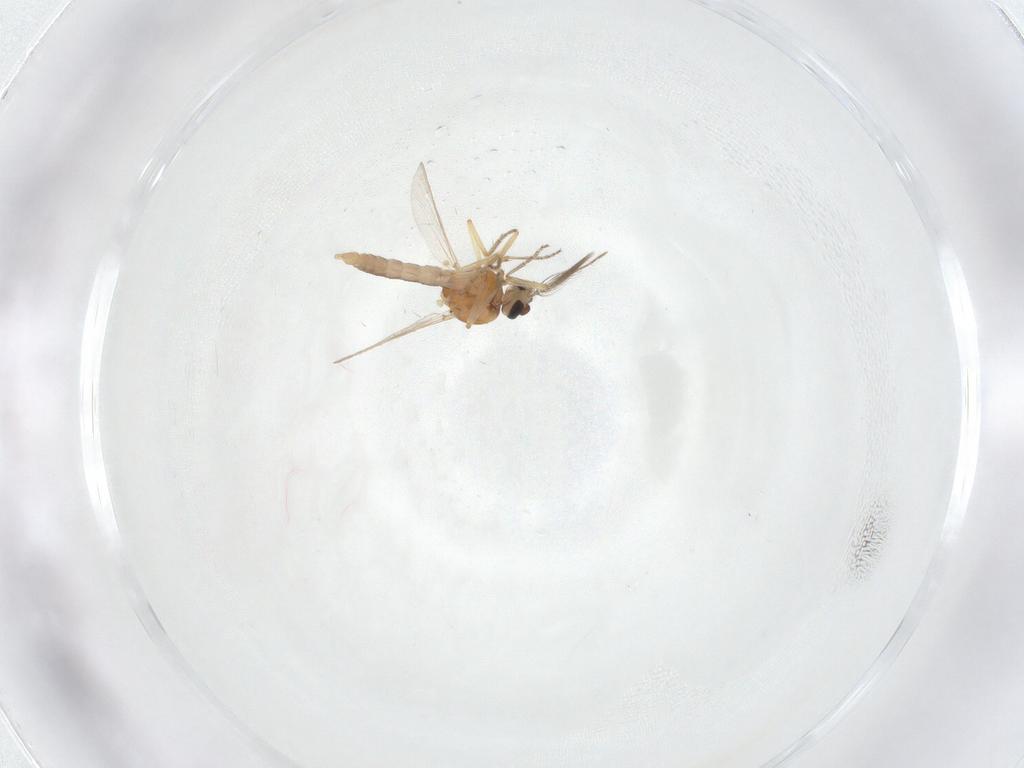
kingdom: Animalia
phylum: Arthropoda
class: Insecta
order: Diptera
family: Ceratopogonidae
